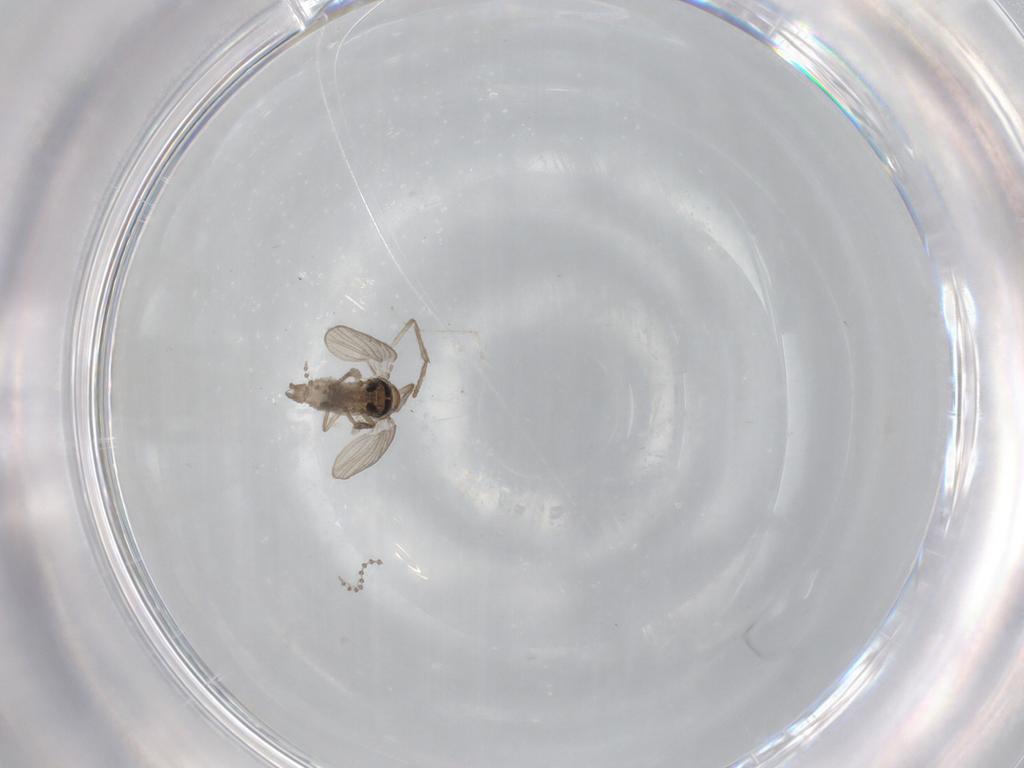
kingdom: Animalia
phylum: Arthropoda
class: Insecta
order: Diptera
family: Psychodidae
